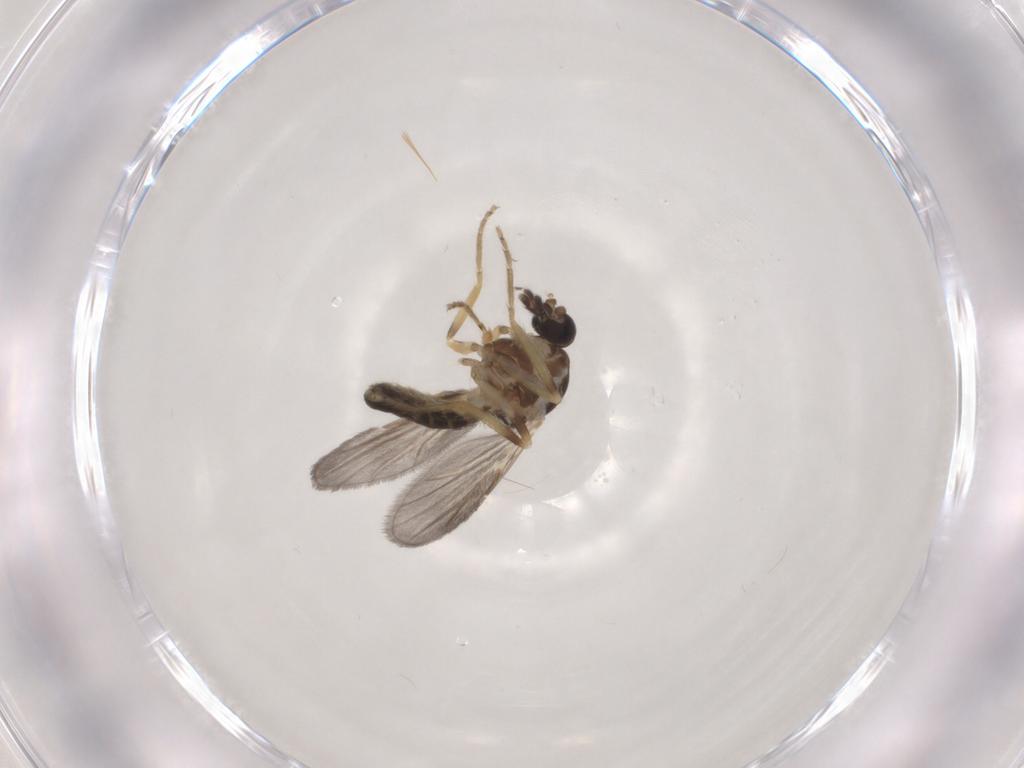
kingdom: Animalia
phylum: Arthropoda
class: Insecta
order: Diptera
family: Ceratopogonidae
